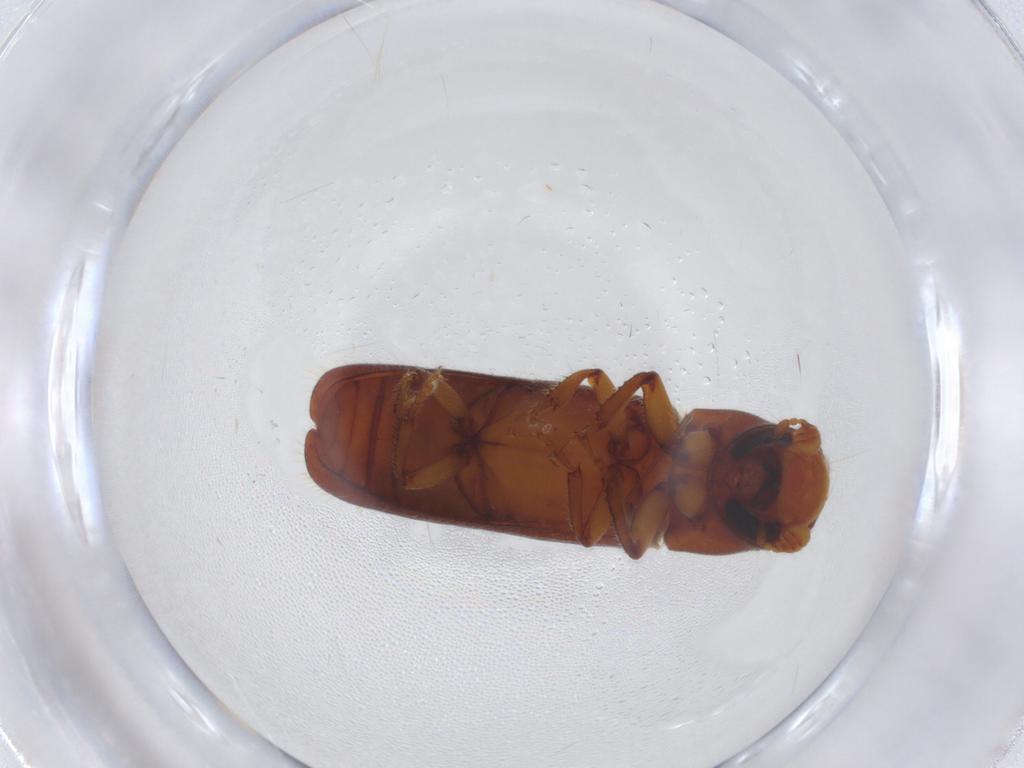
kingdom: Animalia
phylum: Arthropoda
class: Insecta
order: Coleoptera
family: Curculionidae
